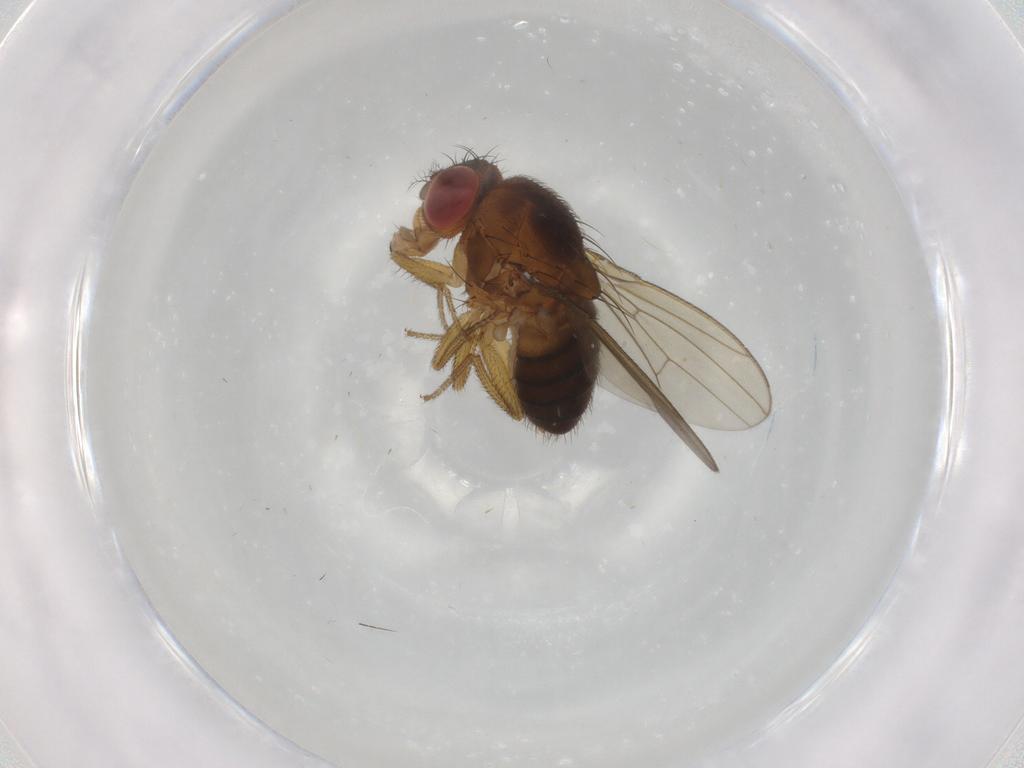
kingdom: Animalia
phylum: Arthropoda
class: Insecta
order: Diptera
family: Drosophilidae
